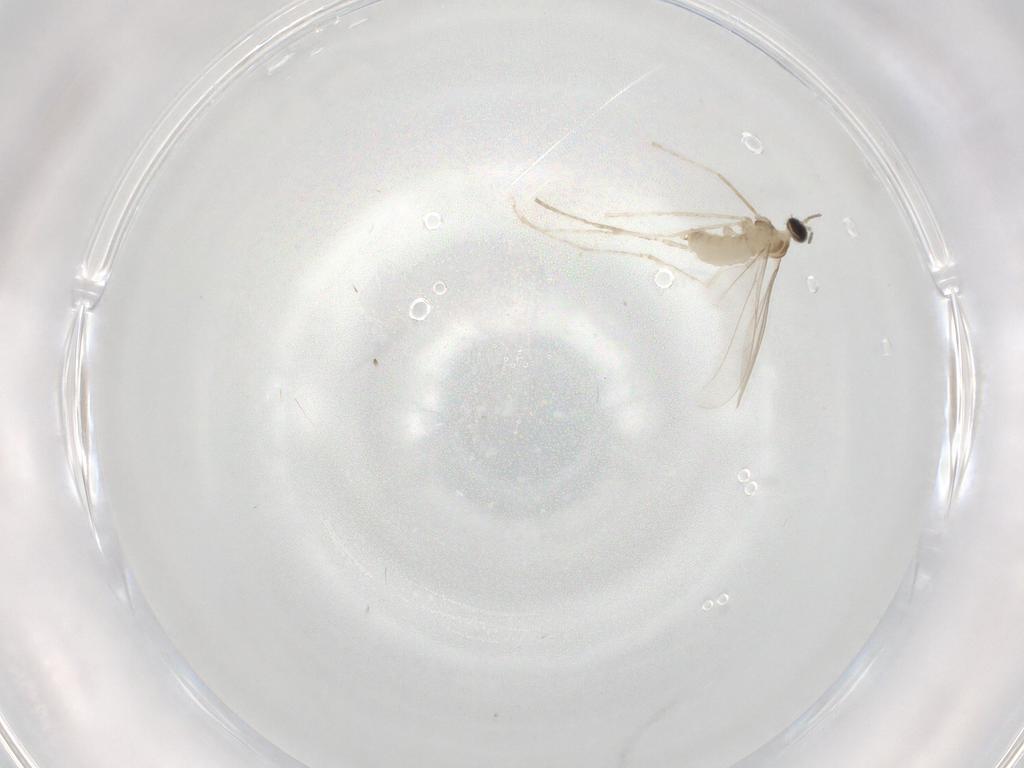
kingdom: Animalia
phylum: Arthropoda
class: Insecta
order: Diptera
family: Cecidomyiidae
